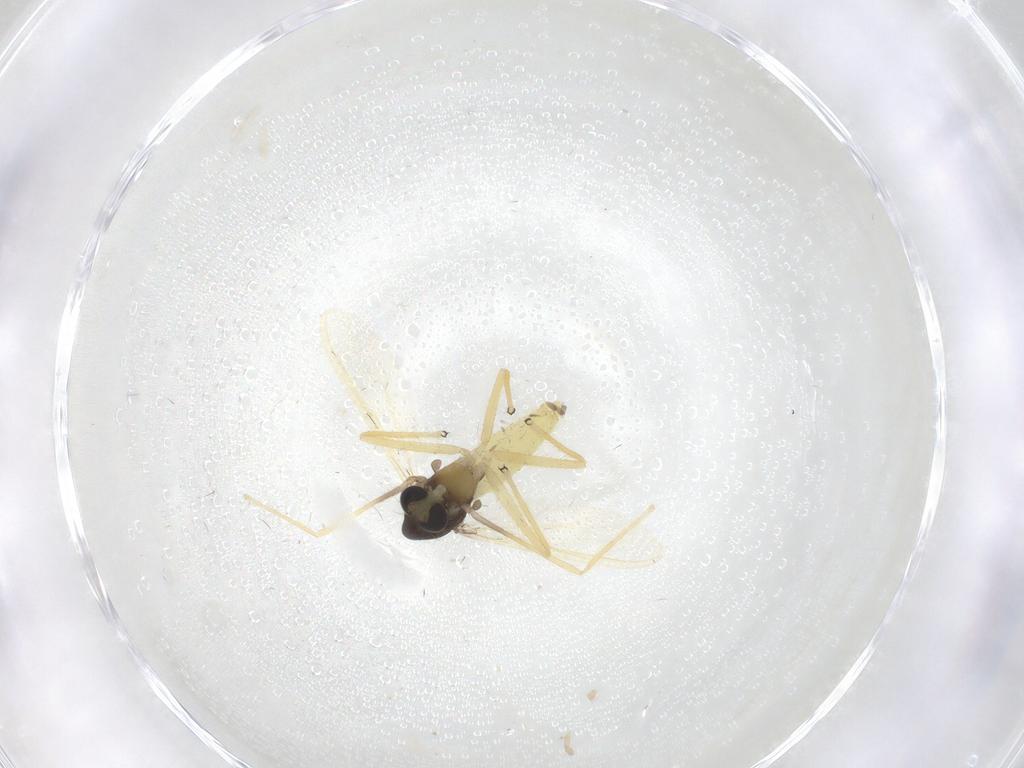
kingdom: Animalia
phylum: Arthropoda
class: Insecta
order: Diptera
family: Chironomidae
